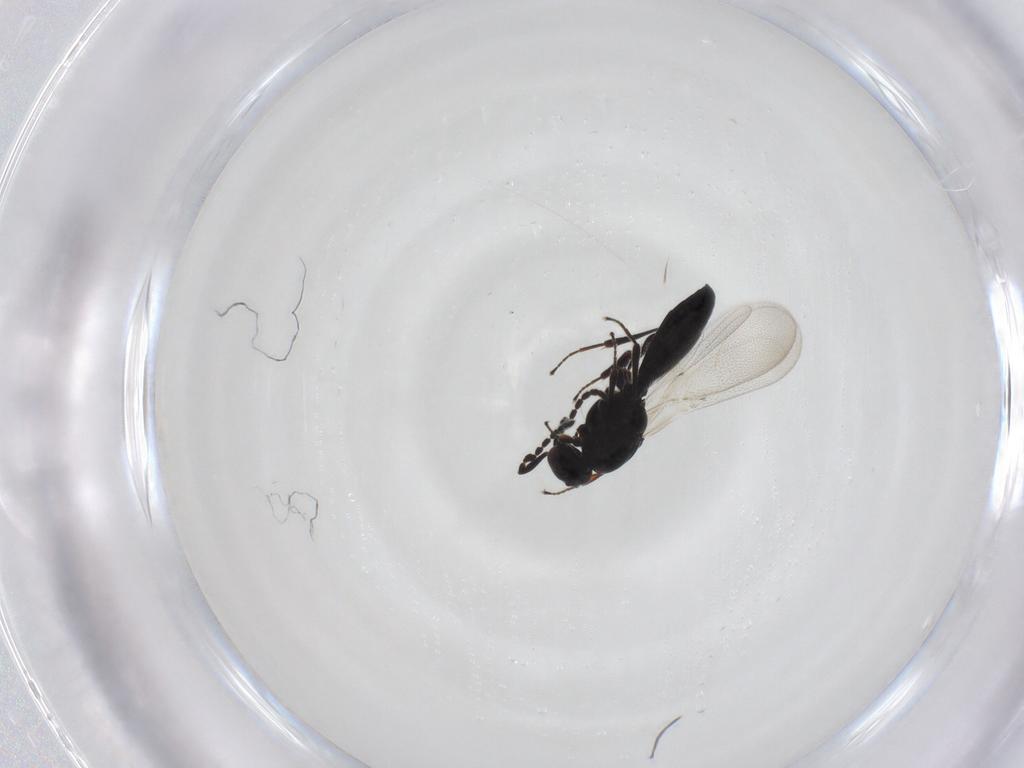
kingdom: Animalia
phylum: Arthropoda
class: Insecta
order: Hymenoptera
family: Platygastridae
